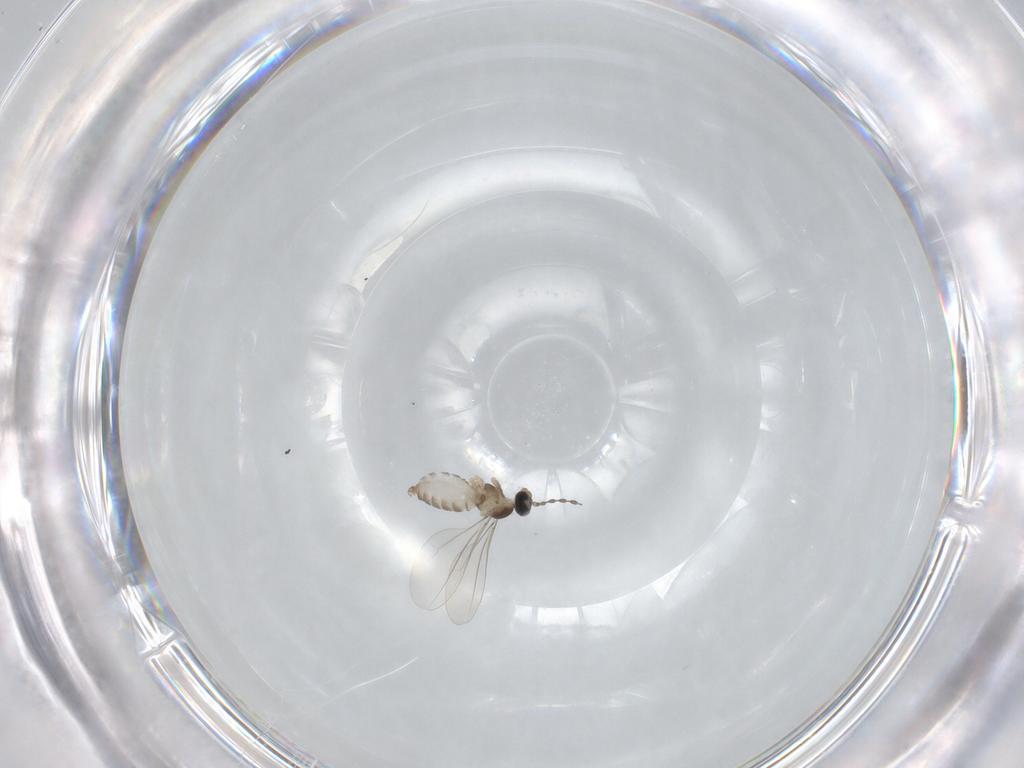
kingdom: Animalia
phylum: Arthropoda
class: Insecta
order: Diptera
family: Cecidomyiidae
